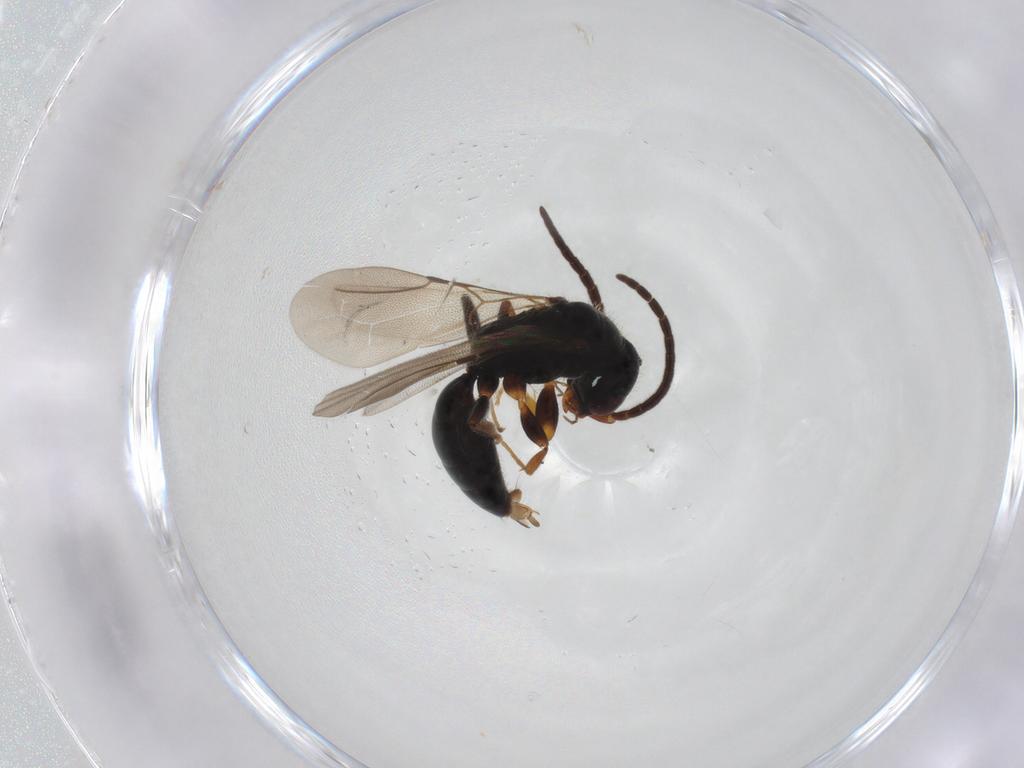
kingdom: Animalia
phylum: Arthropoda
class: Insecta
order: Hymenoptera
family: Bethylidae
